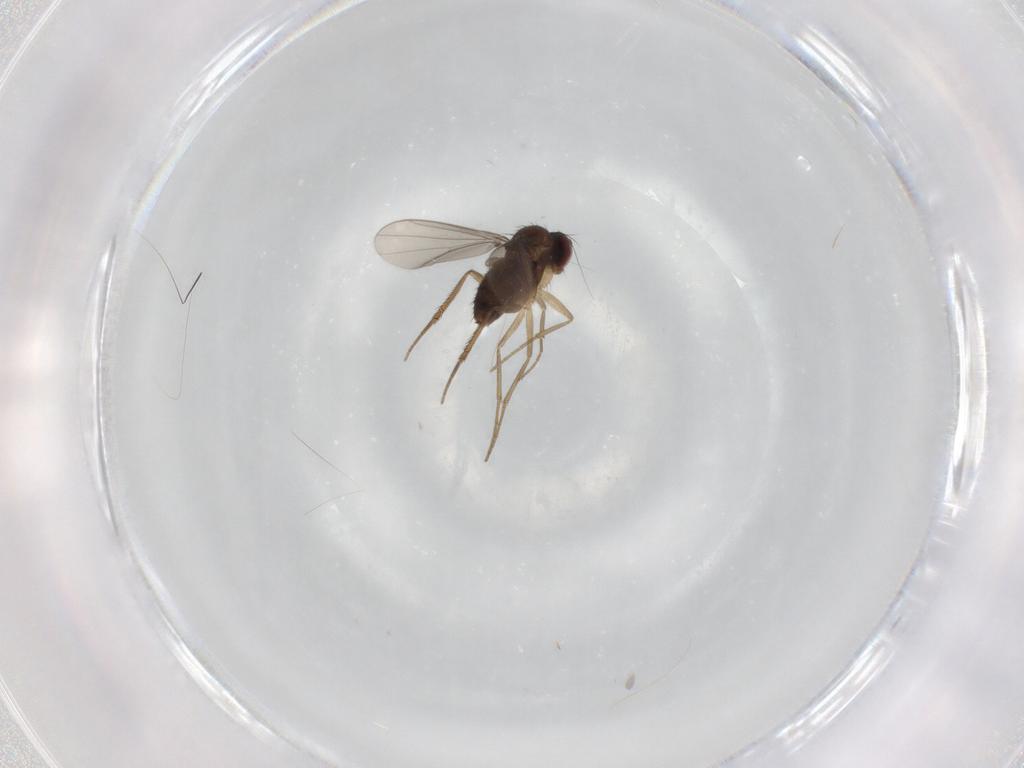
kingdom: Animalia
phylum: Arthropoda
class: Insecta
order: Diptera
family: Dolichopodidae
